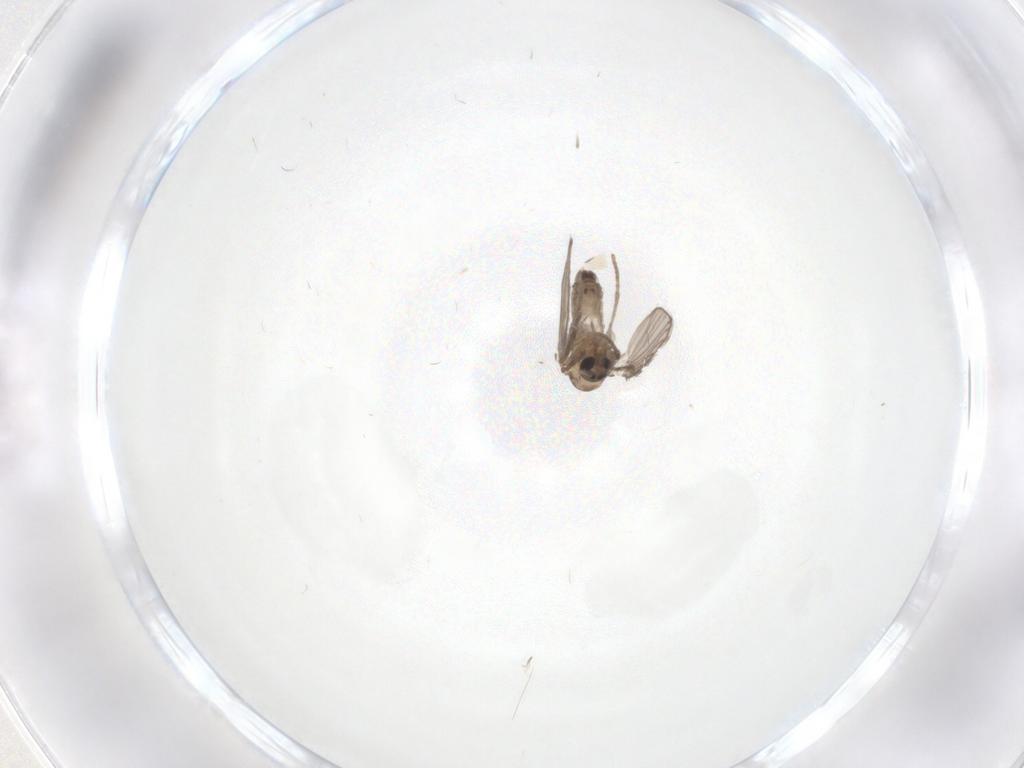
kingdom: Animalia
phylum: Arthropoda
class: Insecta
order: Diptera
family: Psychodidae
